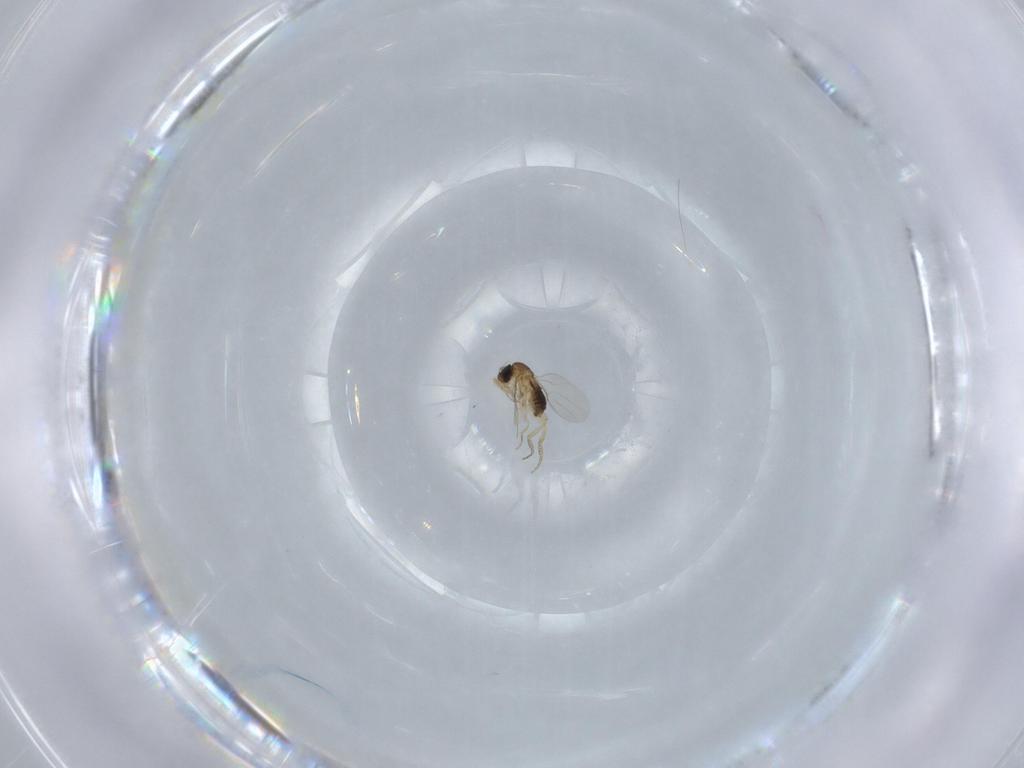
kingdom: Animalia
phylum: Arthropoda
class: Insecta
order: Diptera
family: Phoridae
